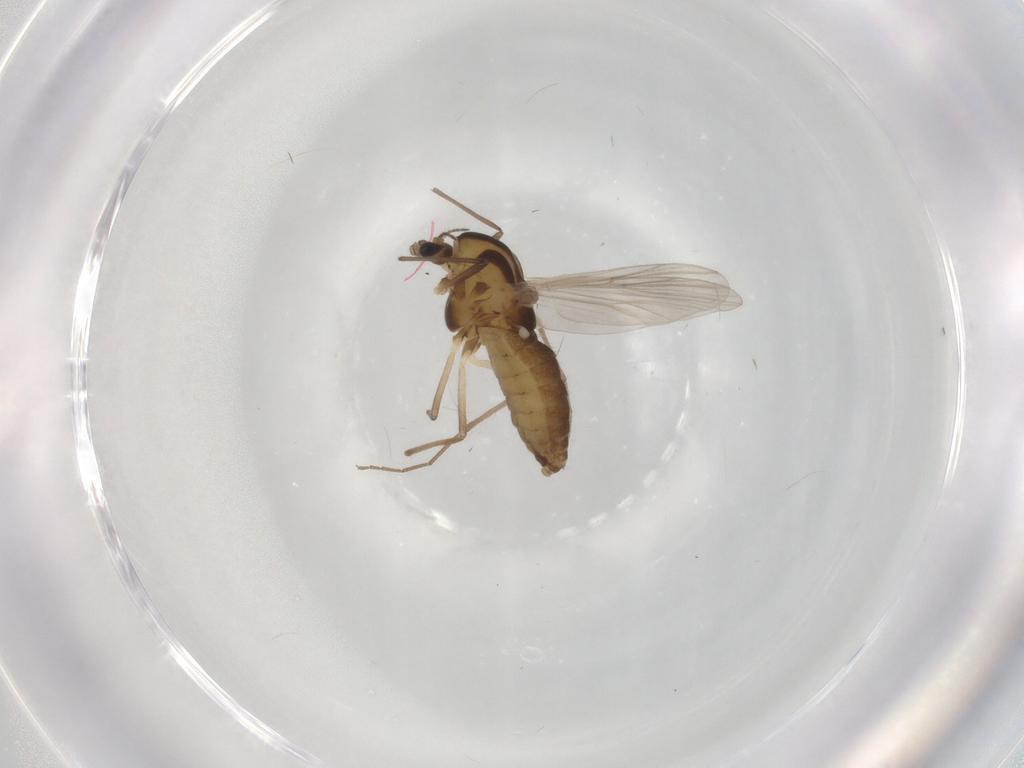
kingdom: Animalia
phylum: Arthropoda
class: Insecta
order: Diptera
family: Chironomidae
